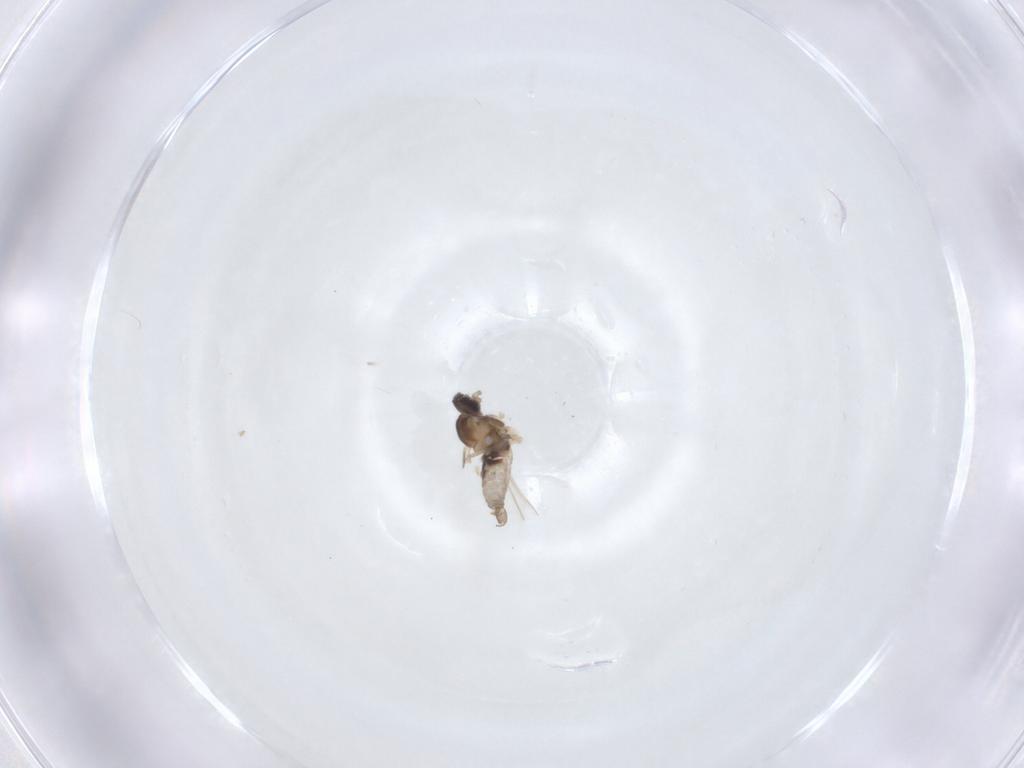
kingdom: Animalia
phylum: Arthropoda
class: Insecta
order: Diptera
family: Cecidomyiidae
